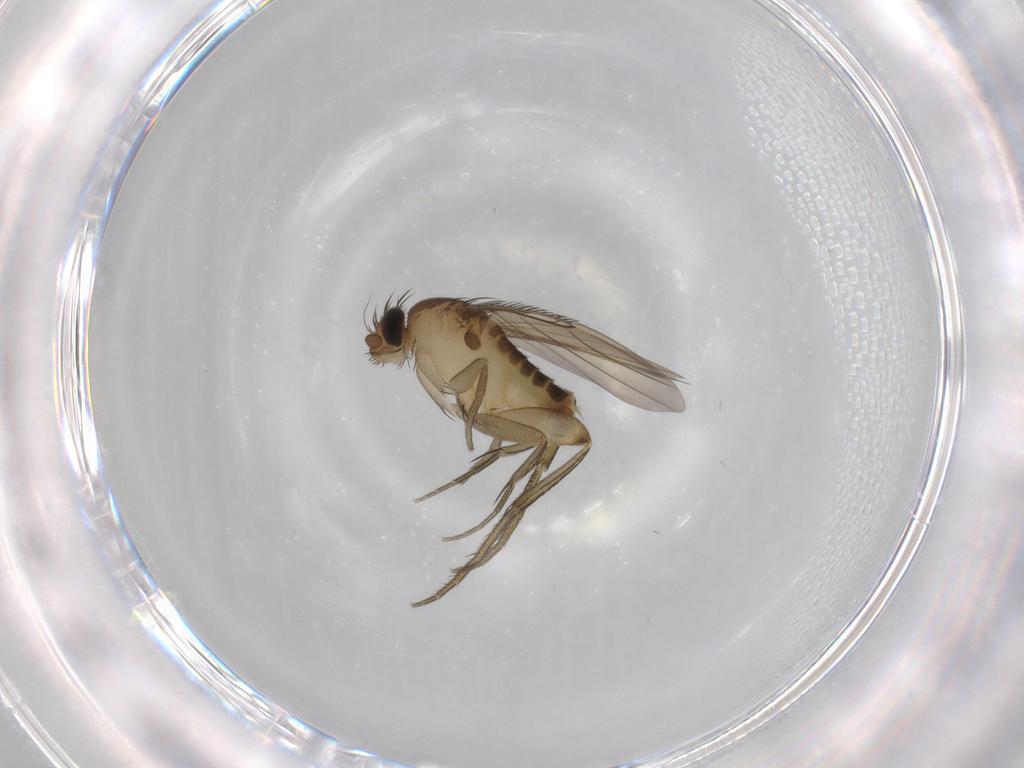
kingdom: Animalia
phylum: Arthropoda
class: Insecta
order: Diptera
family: Phoridae
